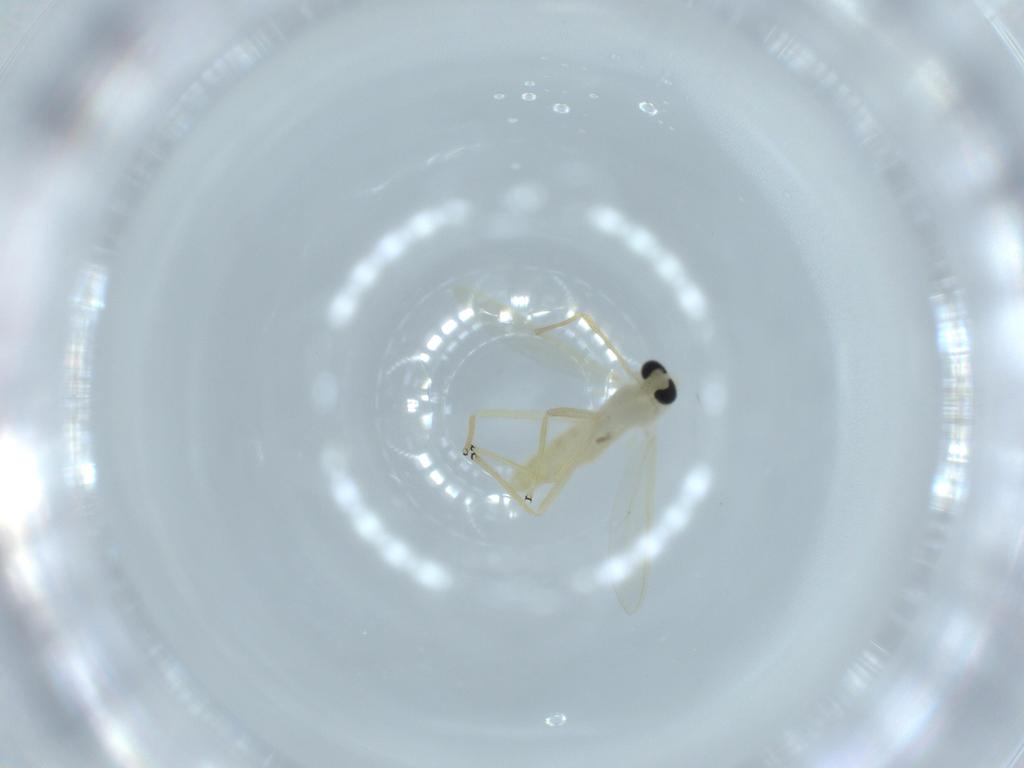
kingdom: Animalia
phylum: Arthropoda
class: Insecta
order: Diptera
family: Chironomidae
